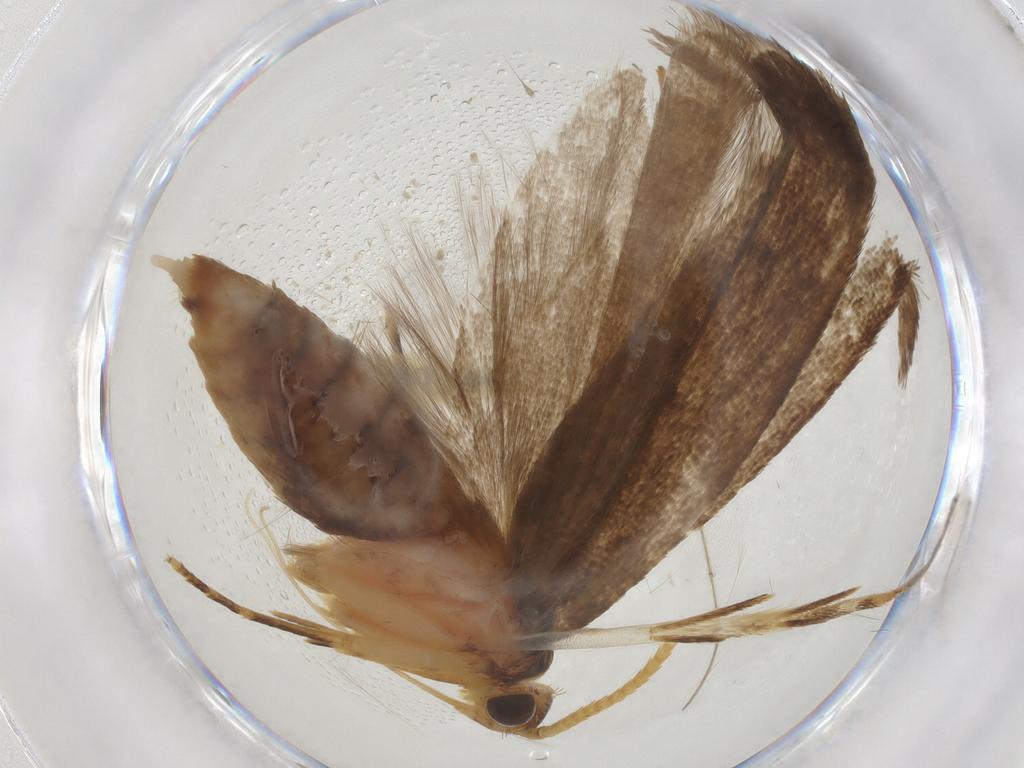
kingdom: Animalia
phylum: Arthropoda
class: Insecta
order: Lepidoptera
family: Lecithoceridae
